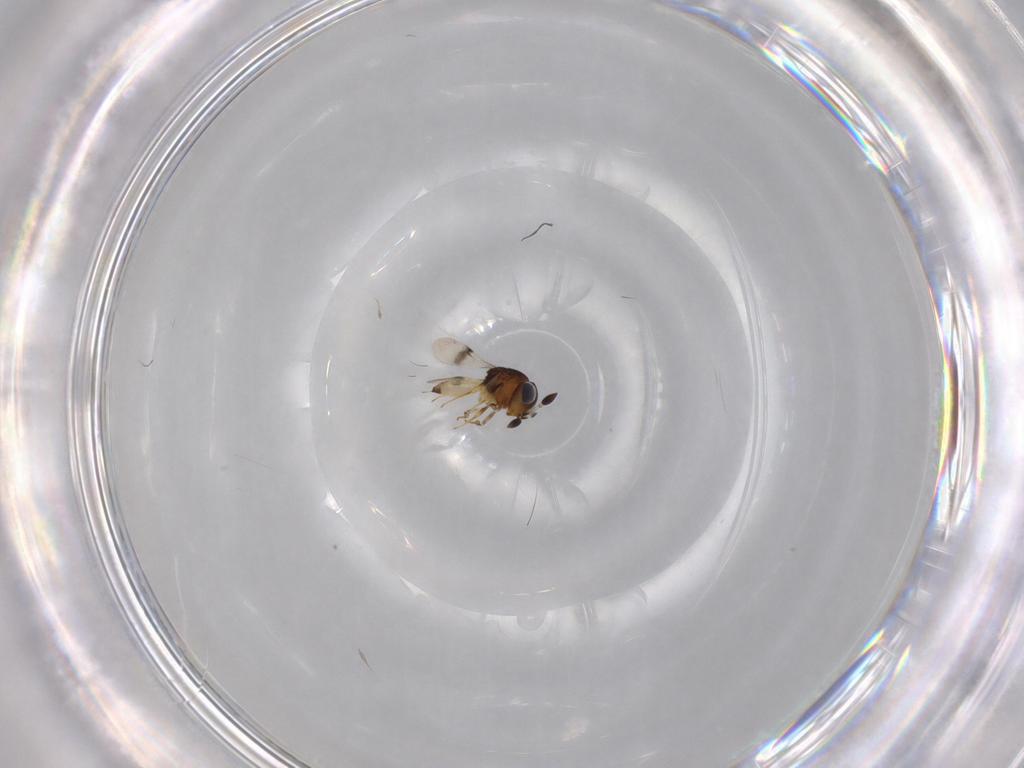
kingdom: Animalia
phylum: Arthropoda
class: Arachnida
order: Araneae
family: Pholcidae
